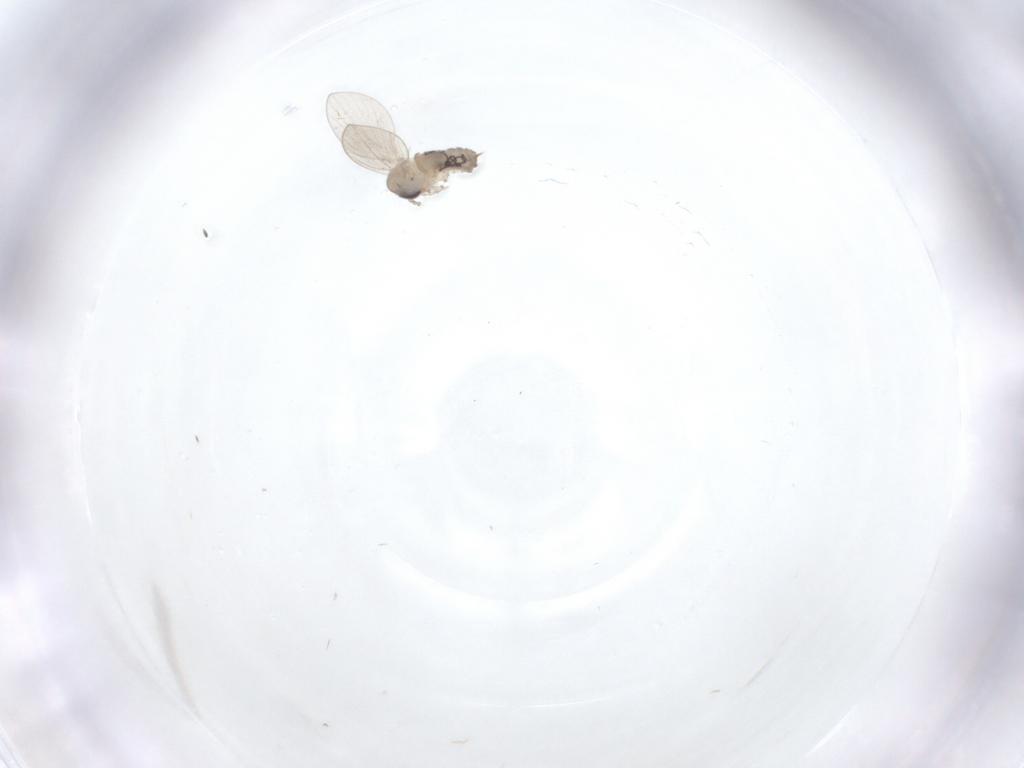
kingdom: Animalia
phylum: Arthropoda
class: Insecta
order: Diptera
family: Psychodidae
